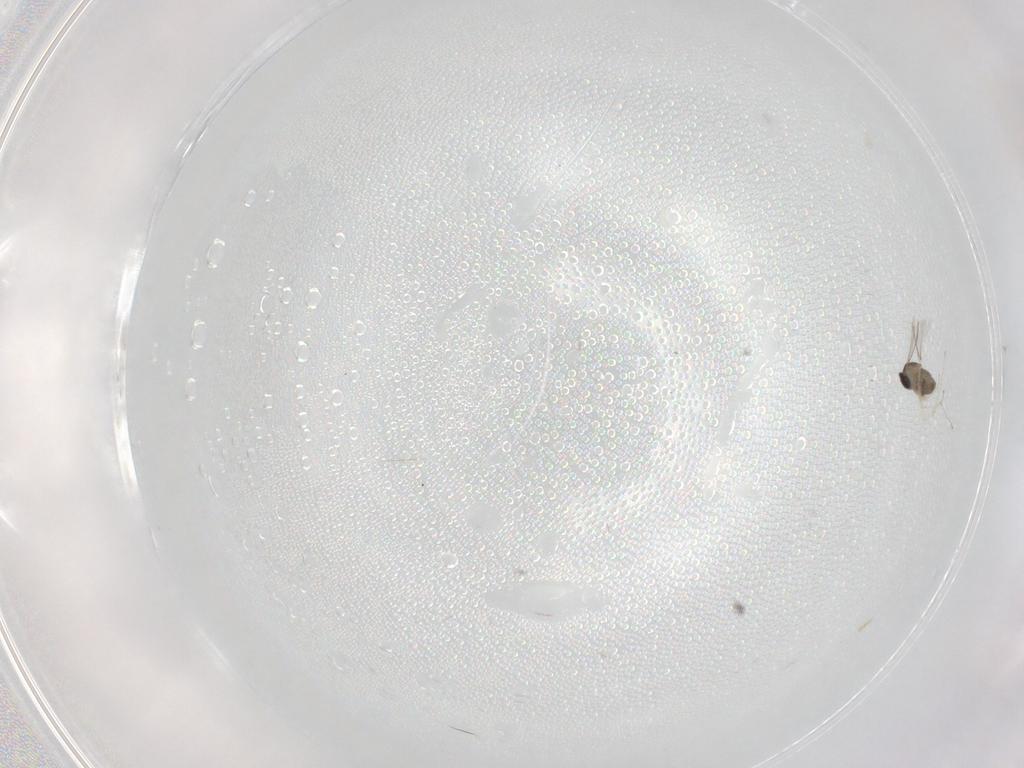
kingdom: Animalia
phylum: Arthropoda
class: Insecta
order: Diptera
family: Cecidomyiidae
